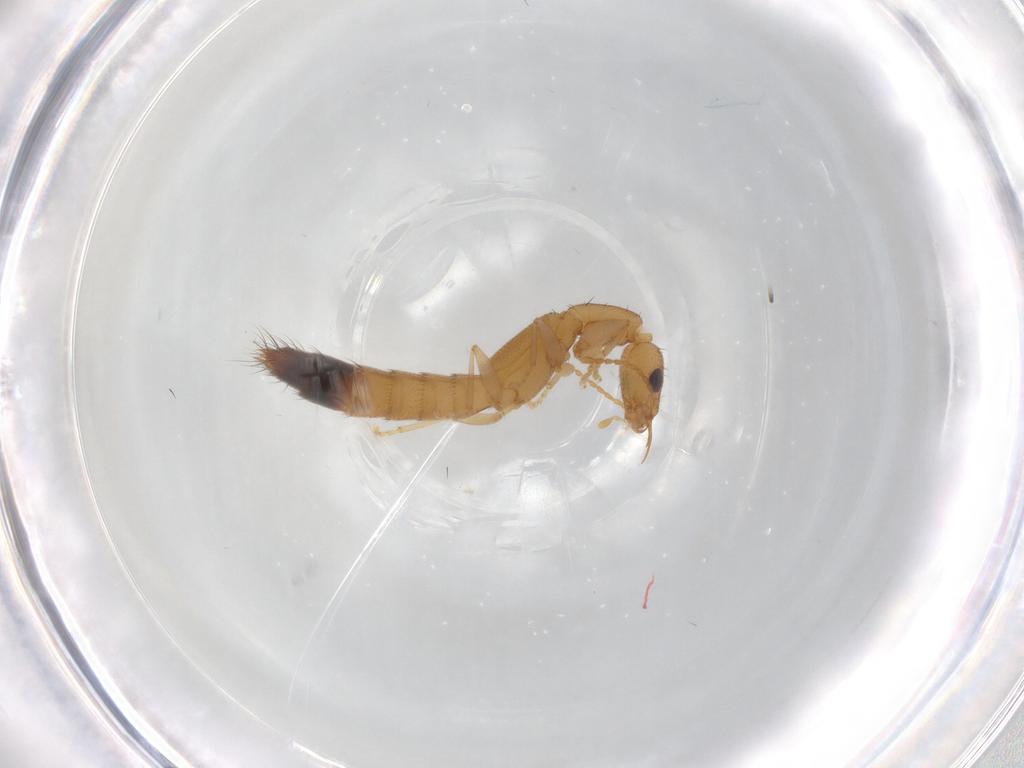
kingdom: Animalia
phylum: Arthropoda
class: Insecta
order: Coleoptera
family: Staphylinidae
